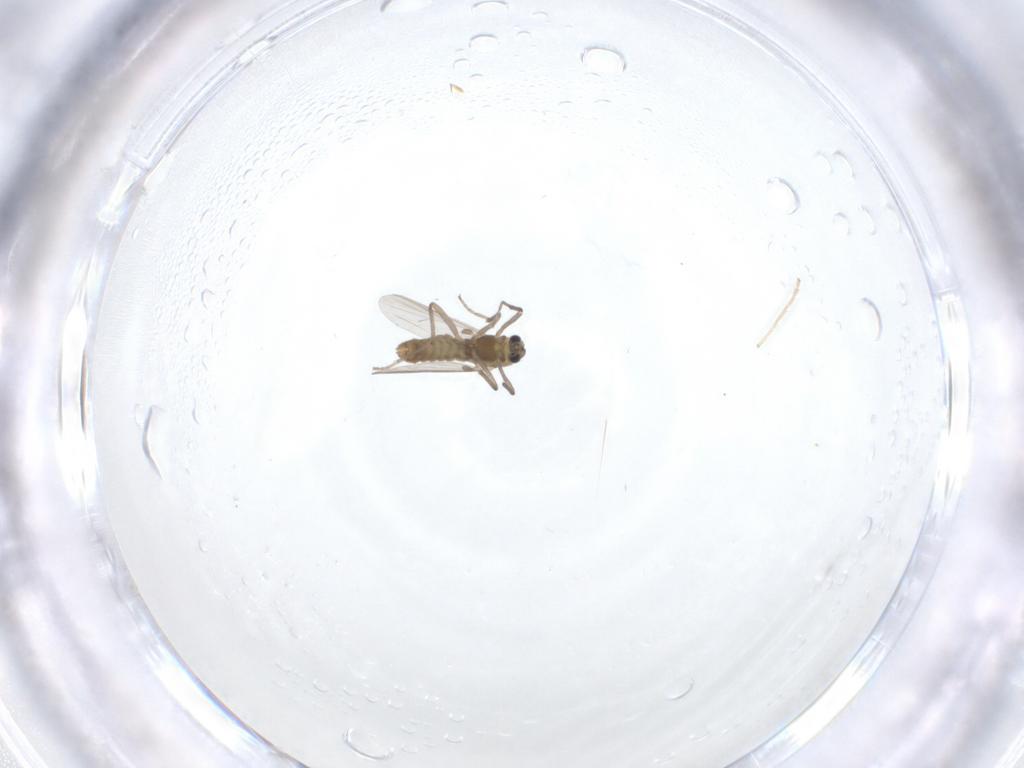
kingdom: Animalia
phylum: Arthropoda
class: Insecta
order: Diptera
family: Chironomidae
